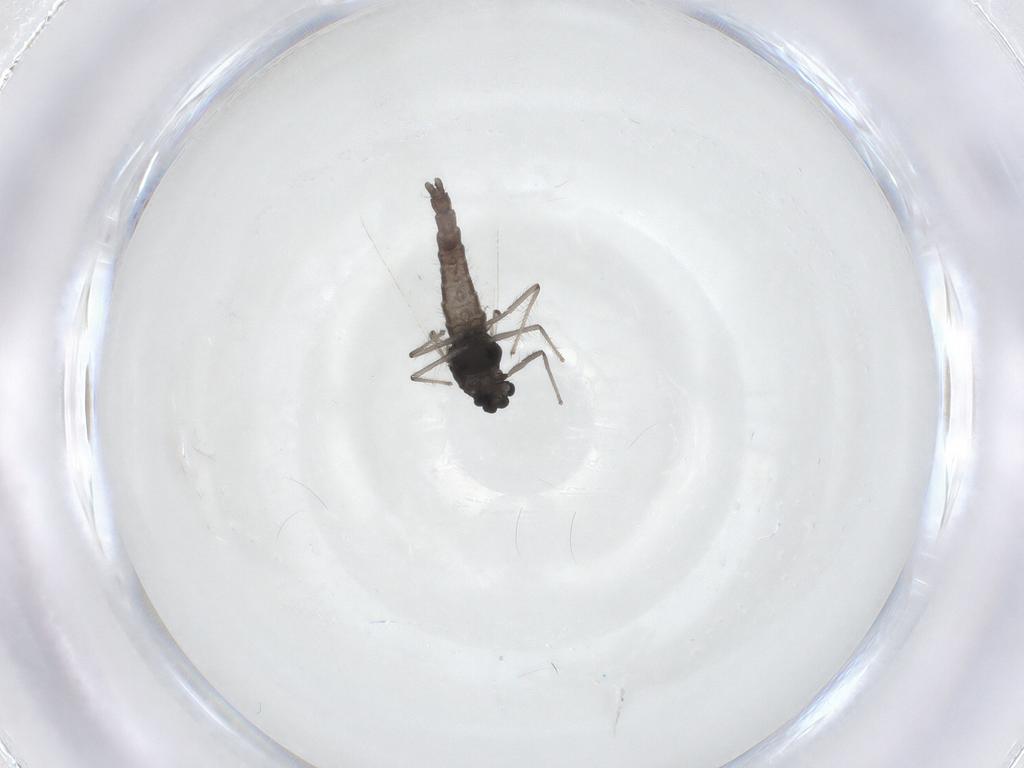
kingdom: Animalia
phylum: Arthropoda
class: Insecta
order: Diptera
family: Chironomidae
